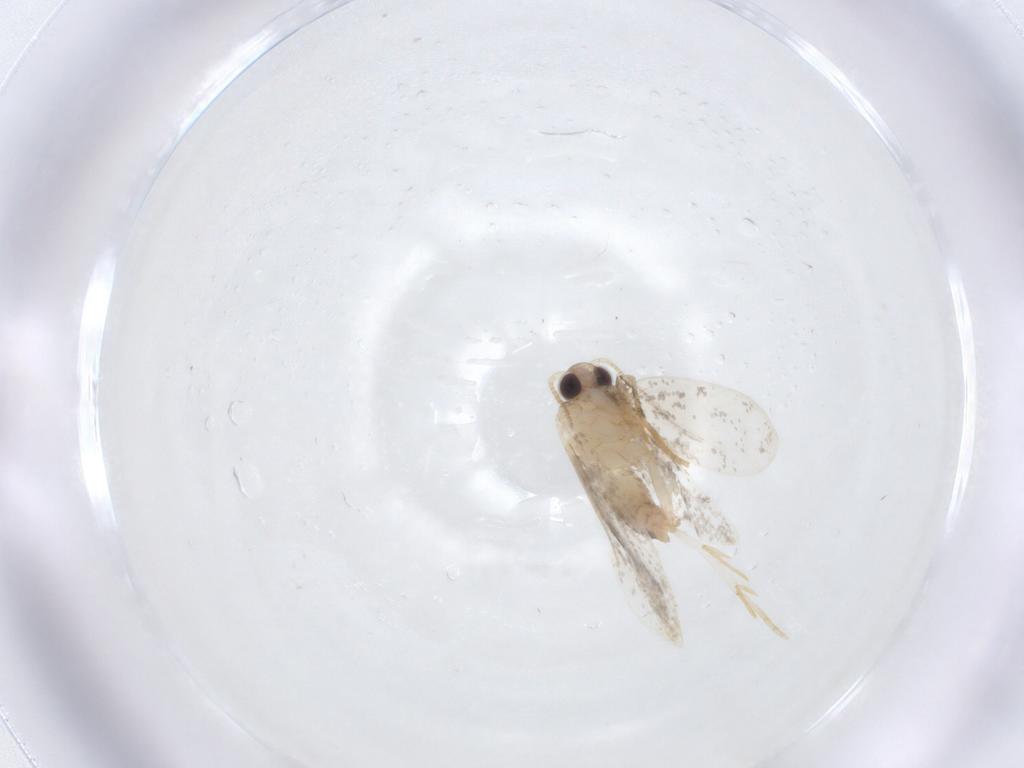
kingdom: Animalia
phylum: Arthropoda
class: Insecta
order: Lepidoptera
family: Psychidae
